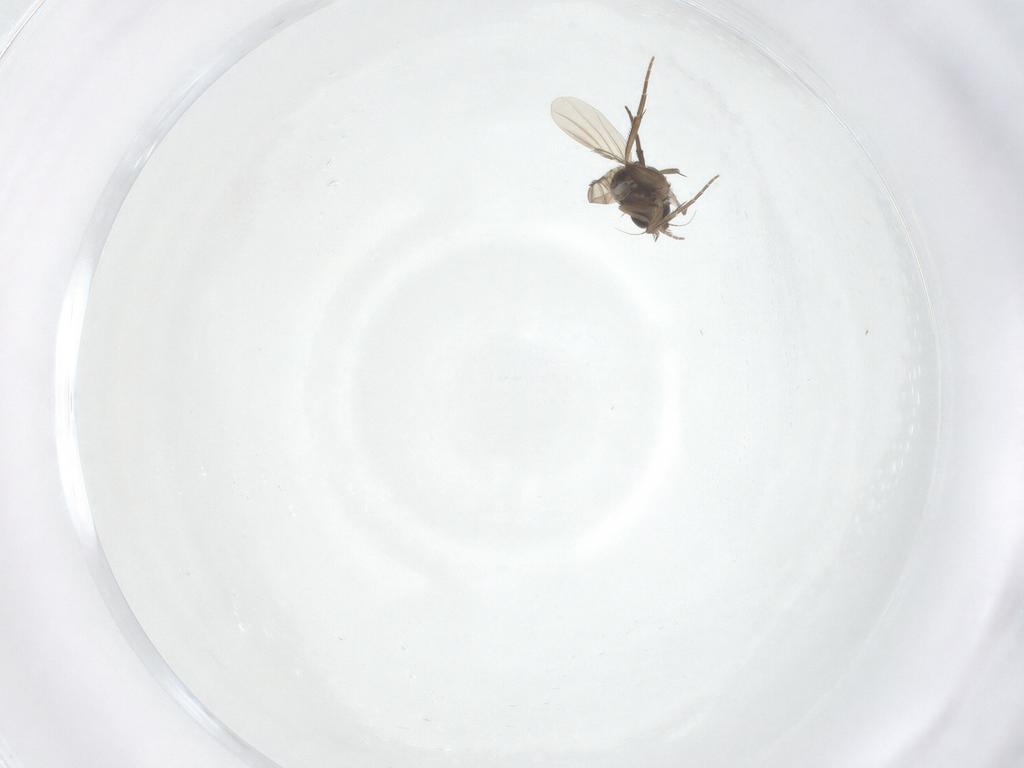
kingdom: Animalia
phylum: Arthropoda
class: Insecta
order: Diptera
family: Phoridae
